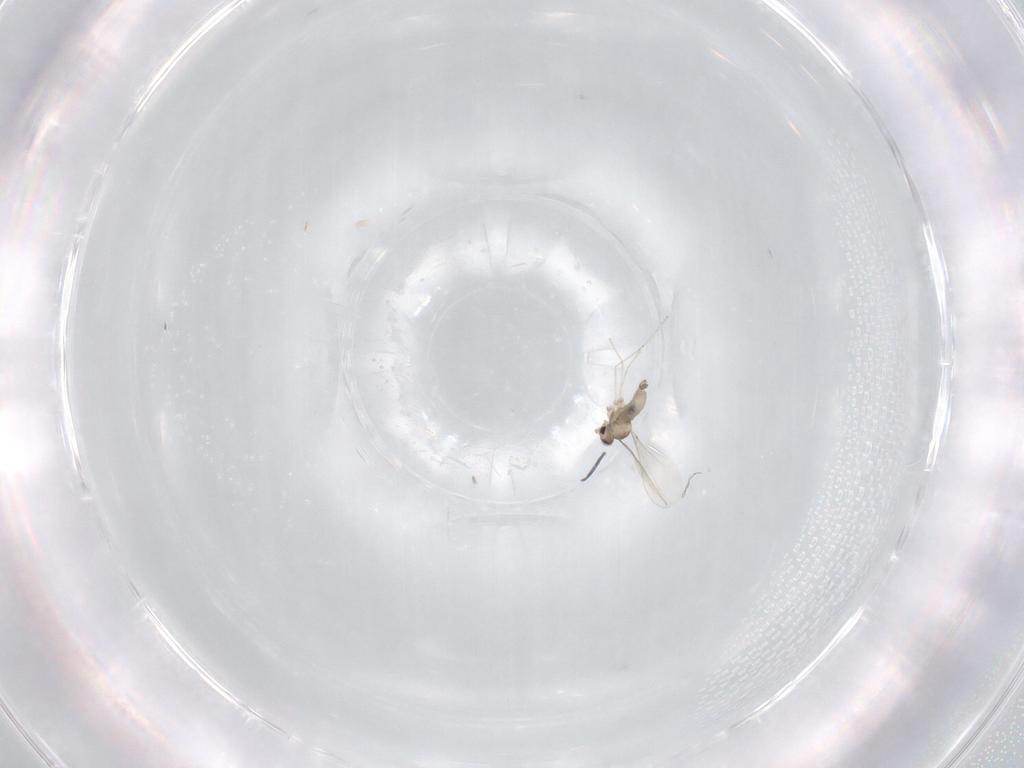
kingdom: Animalia
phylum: Arthropoda
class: Insecta
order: Diptera
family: Cecidomyiidae
